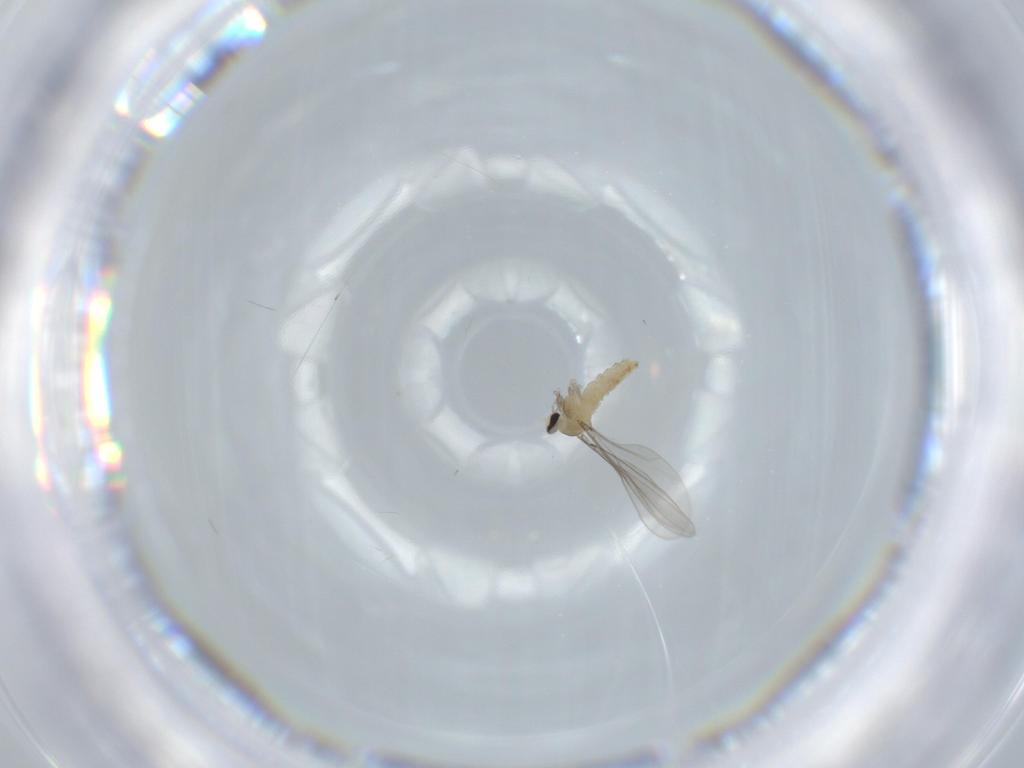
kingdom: Animalia
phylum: Arthropoda
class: Insecta
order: Diptera
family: Cecidomyiidae
